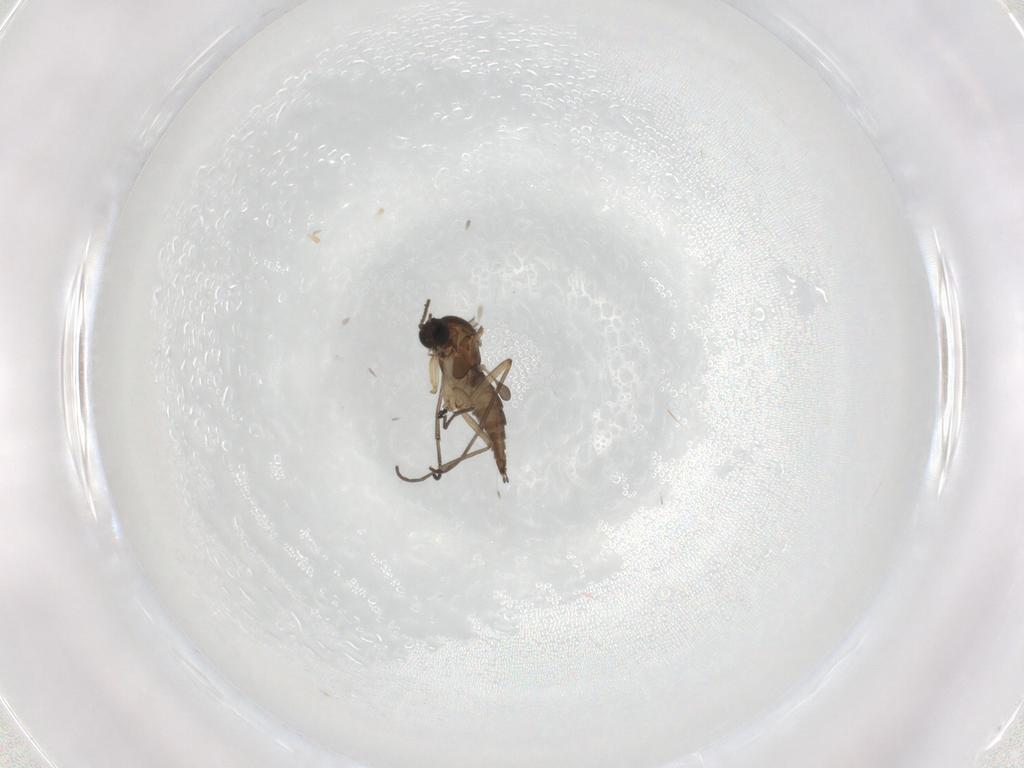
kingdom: Animalia
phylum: Arthropoda
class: Insecta
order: Diptera
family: Sciaridae
